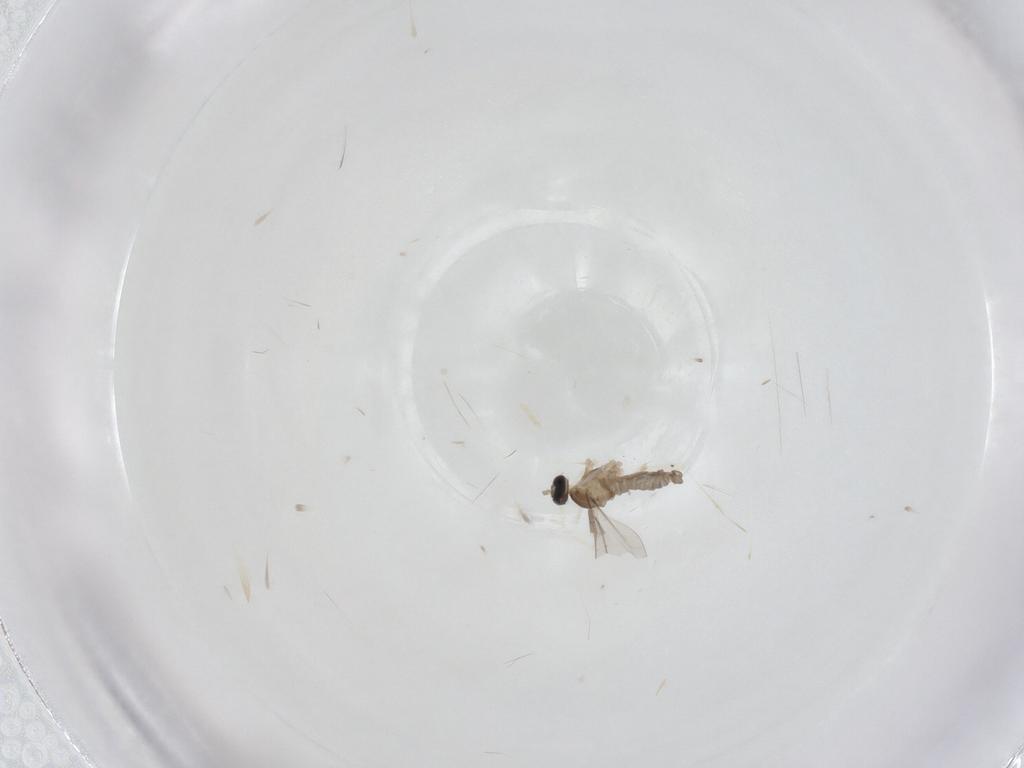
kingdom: Animalia
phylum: Arthropoda
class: Insecta
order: Diptera
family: Cecidomyiidae
